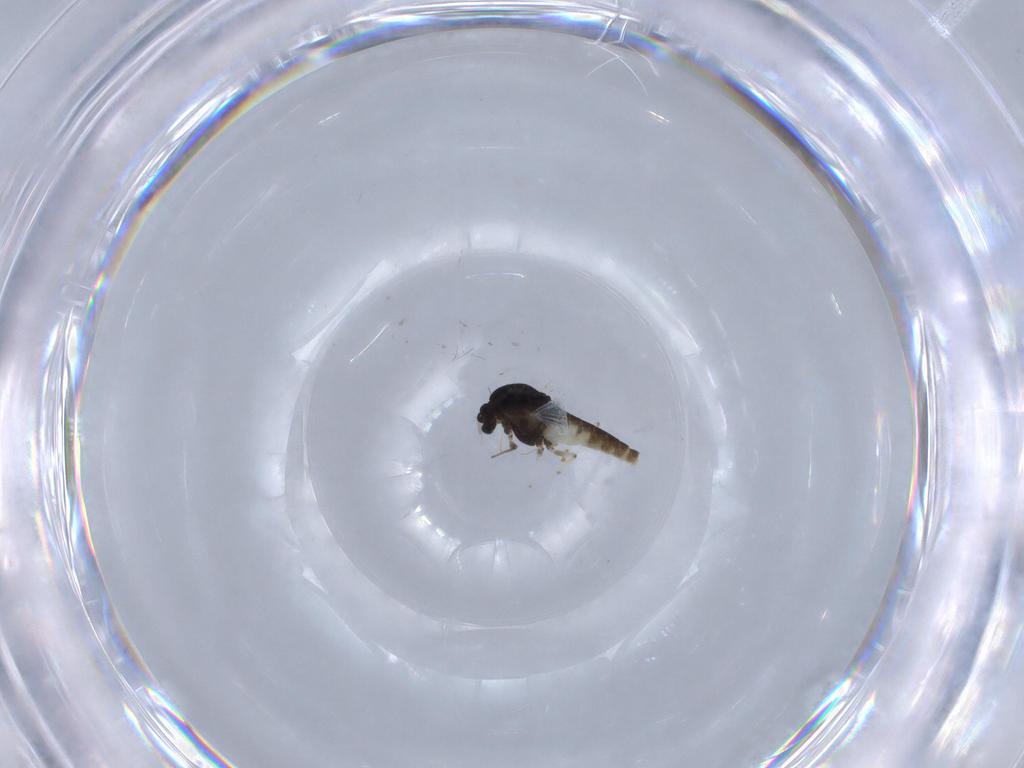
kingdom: Animalia
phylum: Arthropoda
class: Insecta
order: Diptera
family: Chironomidae
